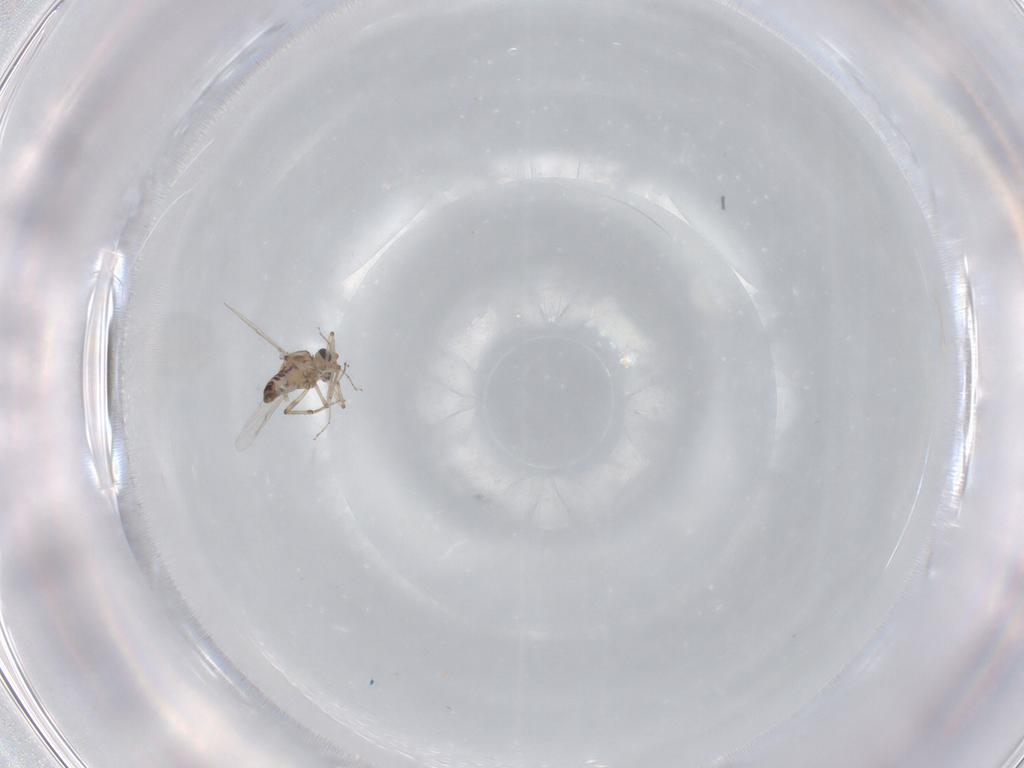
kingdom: Animalia
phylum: Arthropoda
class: Insecta
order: Diptera
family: Ceratopogonidae
